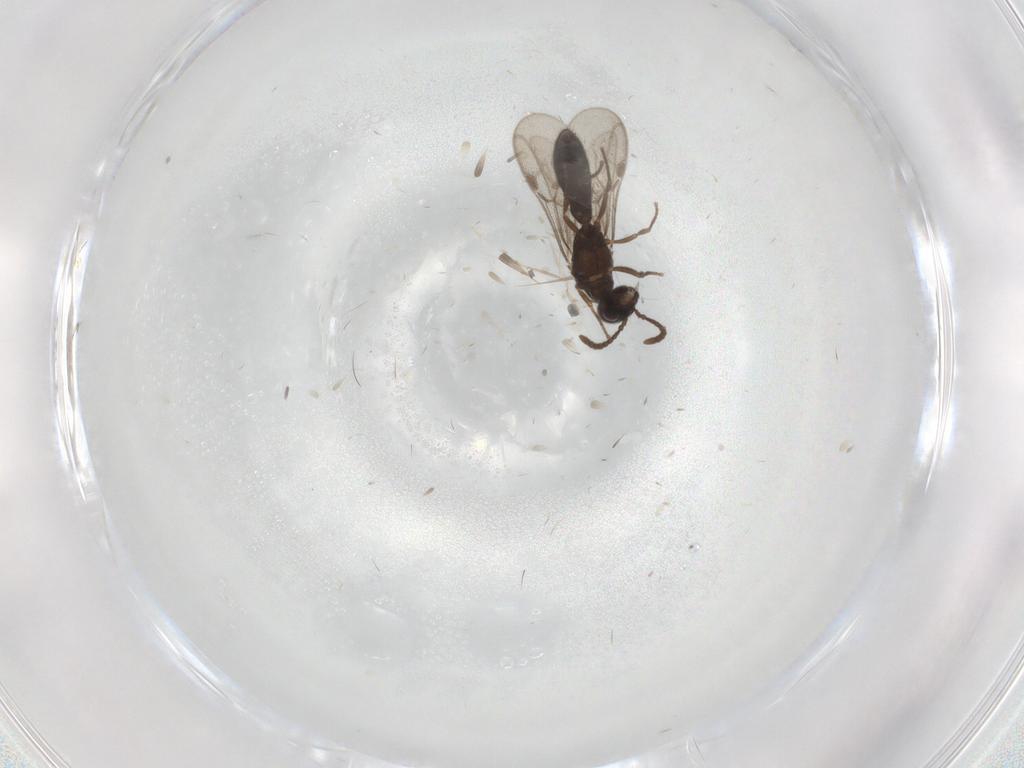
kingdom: Animalia
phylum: Arthropoda
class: Insecta
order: Hymenoptera
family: Formicidae
